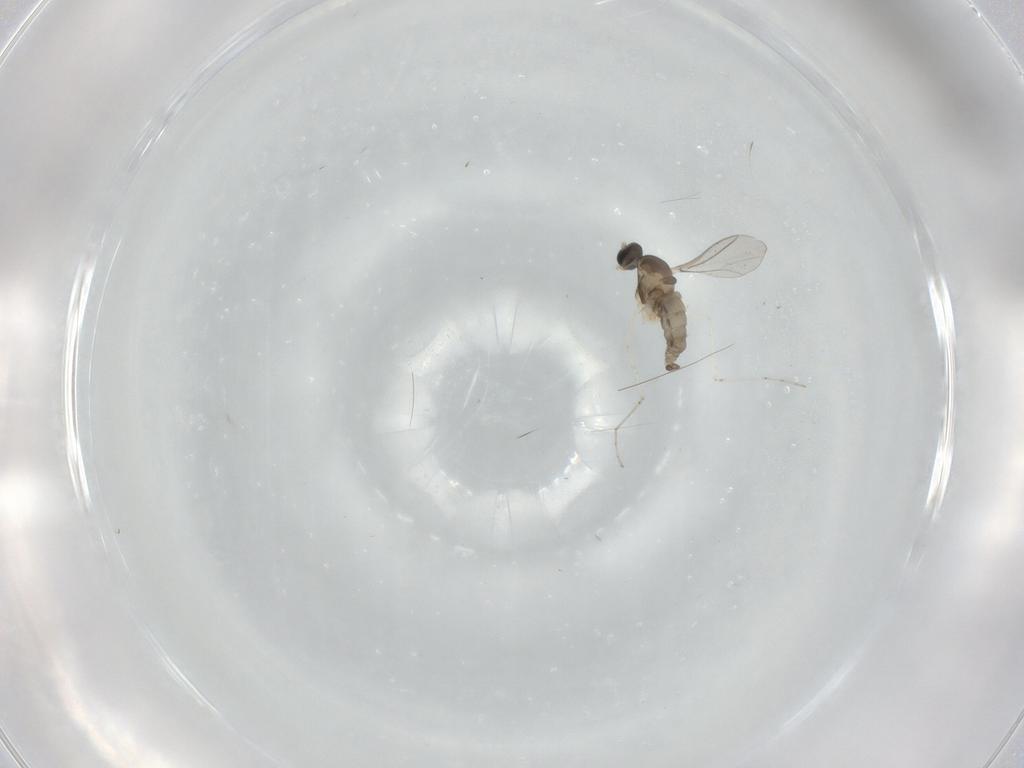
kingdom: Animalia
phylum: Arthropoda
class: Insecta
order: Diptera
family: Cecidomyiidae
